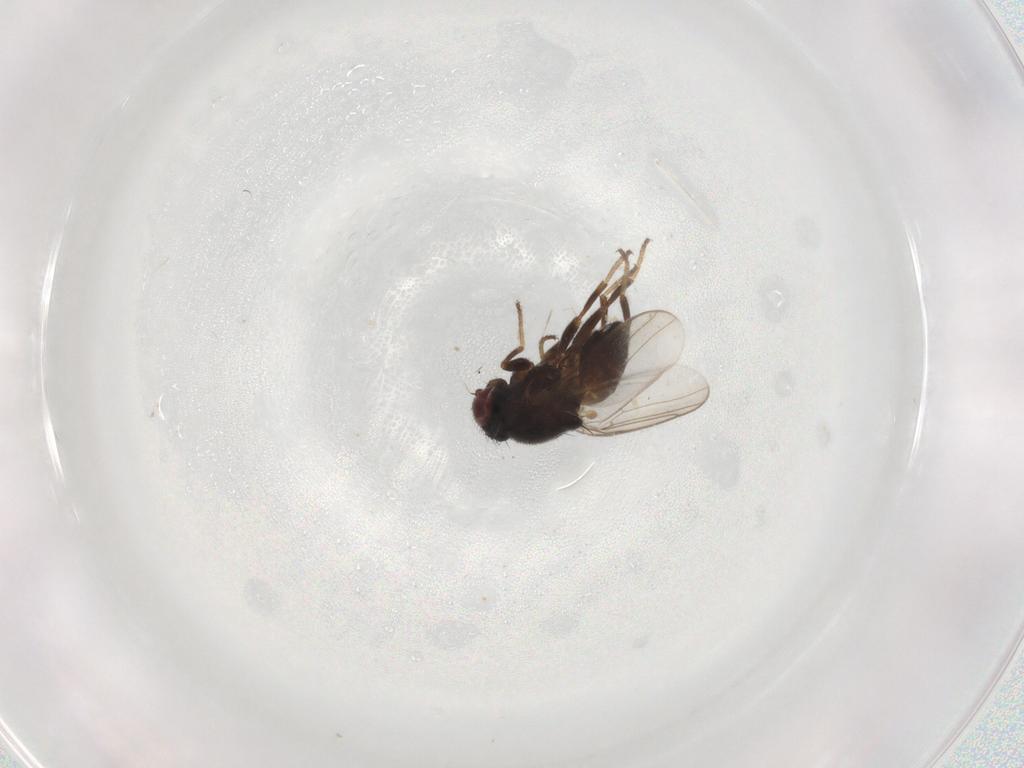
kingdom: Animalia
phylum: Arthropoda
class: Insecta
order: Diptera
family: Chloropidae
